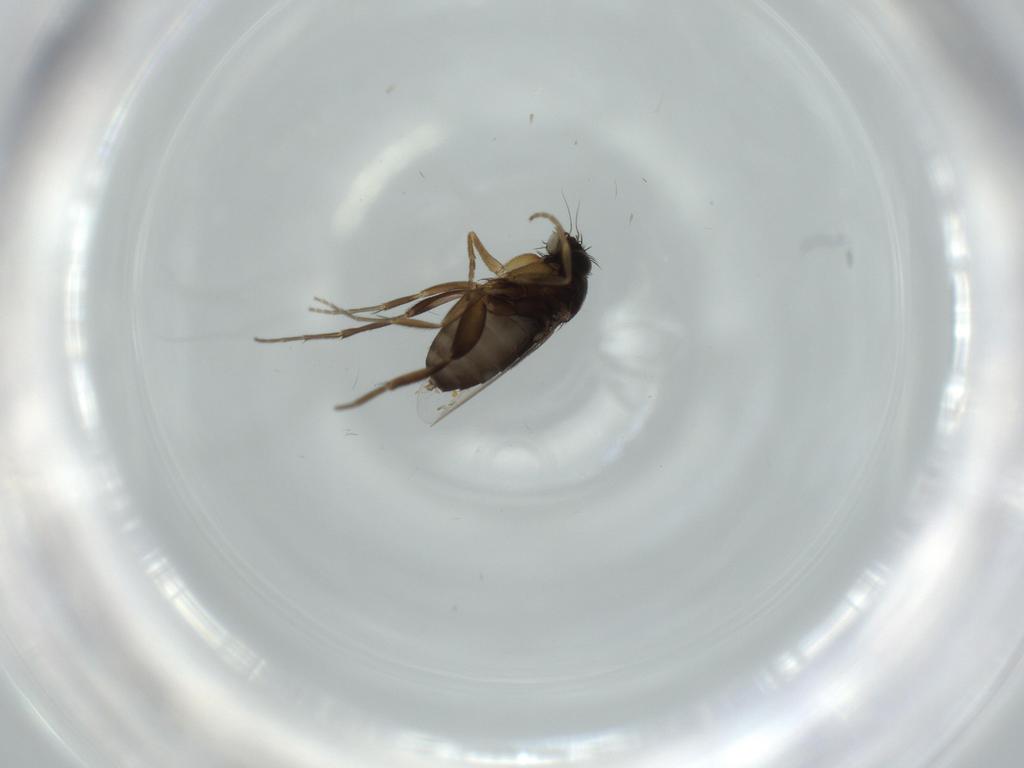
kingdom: Animalia
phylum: Arthropoda
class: Insecta
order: Diptera
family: Phoridae
